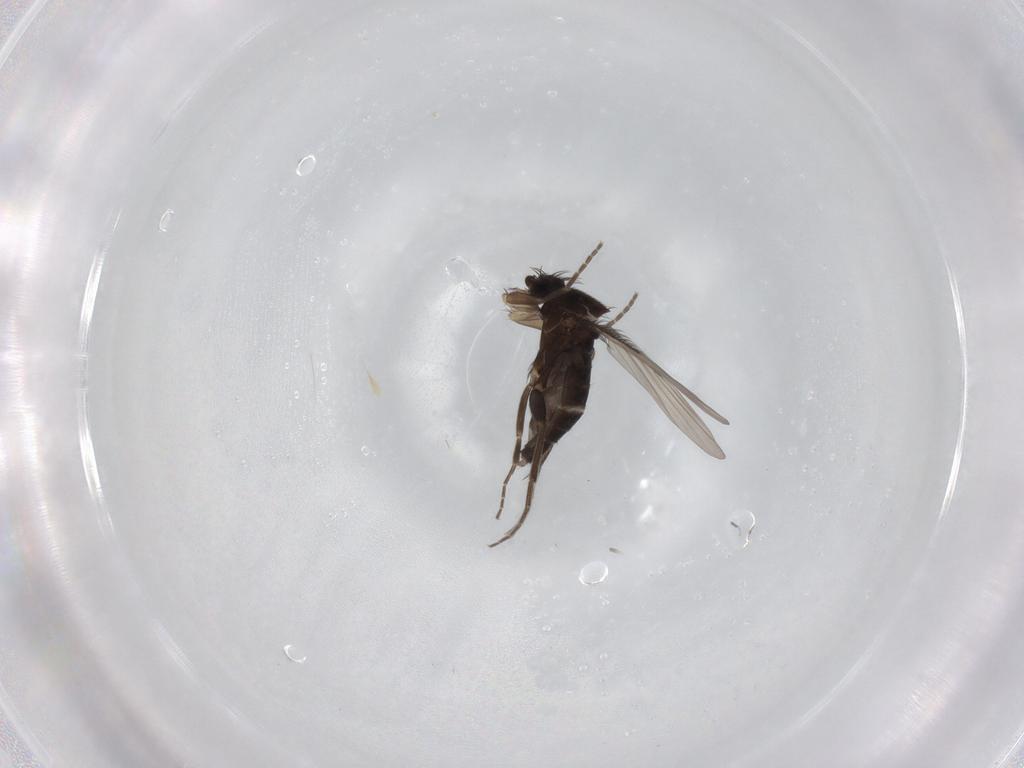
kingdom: Animalia
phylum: Arthropoda
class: Insecta
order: Diptera
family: Phoridae
